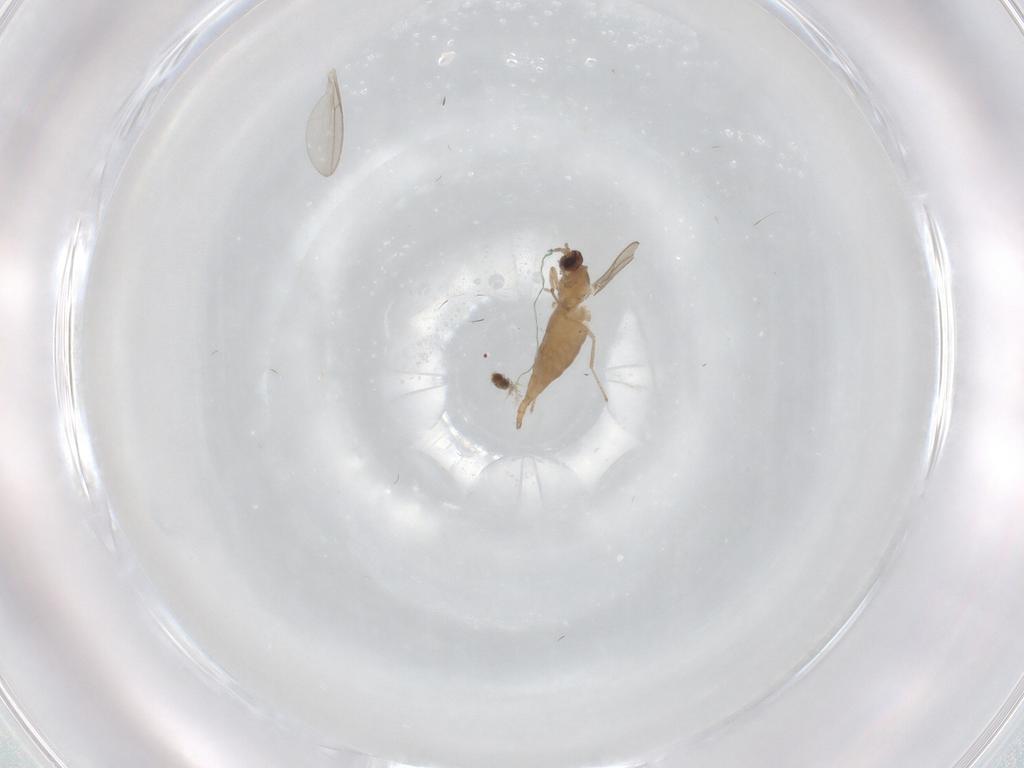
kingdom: Animalia
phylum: Arthropoda
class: Insecta
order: Diptera
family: Cecidomyiidae
